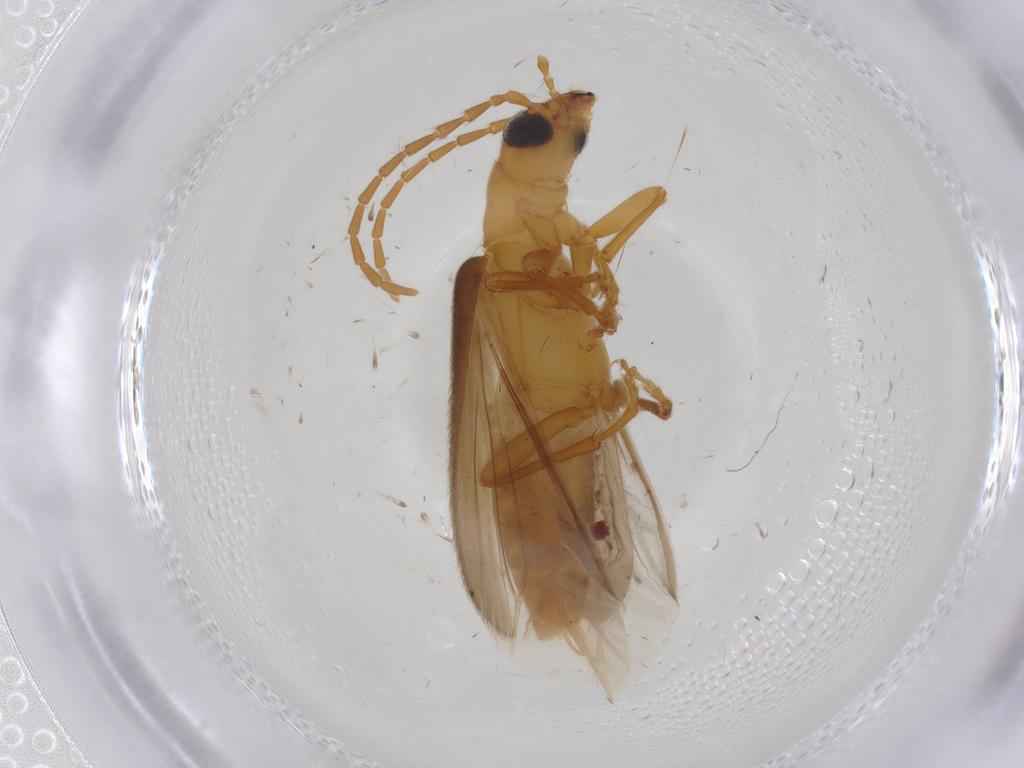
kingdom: Animalia
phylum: Arthropoda
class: Insecta
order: Coleoptera
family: Oedemeridae
